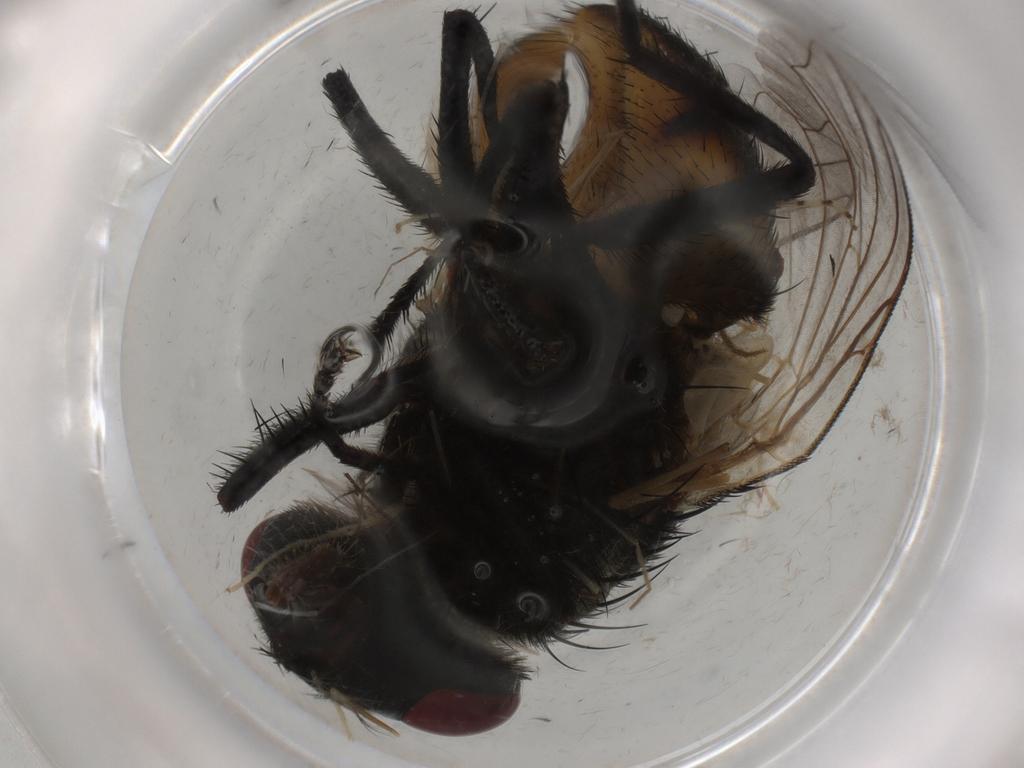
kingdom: Animalia
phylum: Arthropoda
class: Insecta
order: Diptera
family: Muscidae
